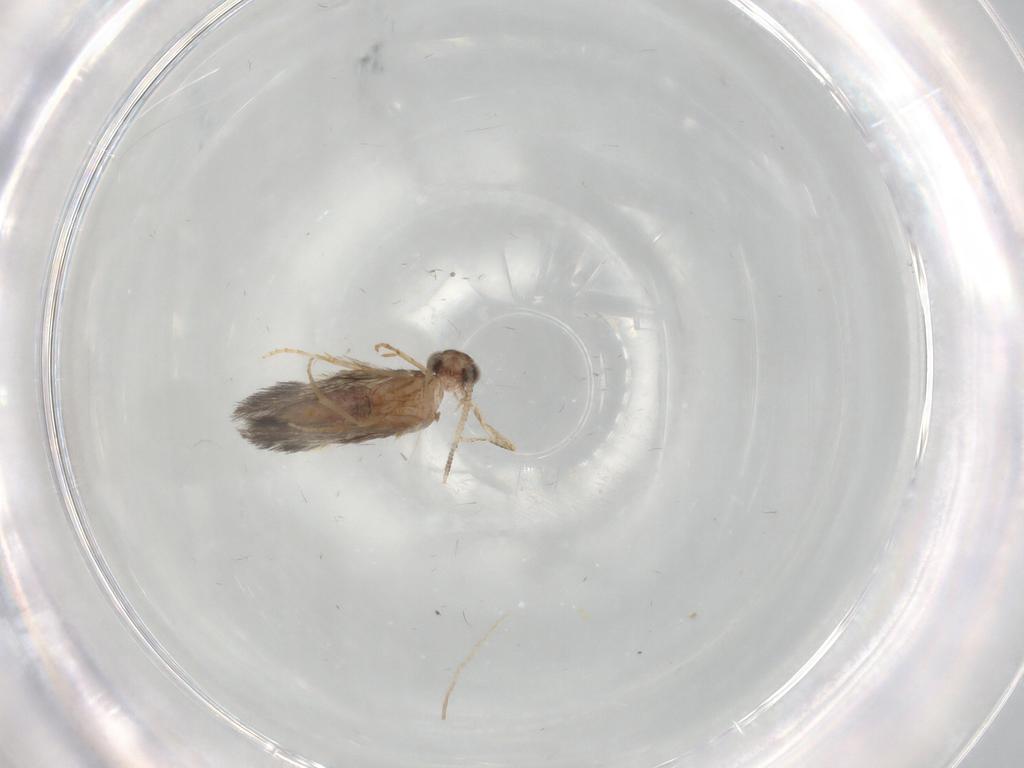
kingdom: Animalia
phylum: Arthropoda
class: Insecta
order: Trichoptera
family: Hydroptilidae
